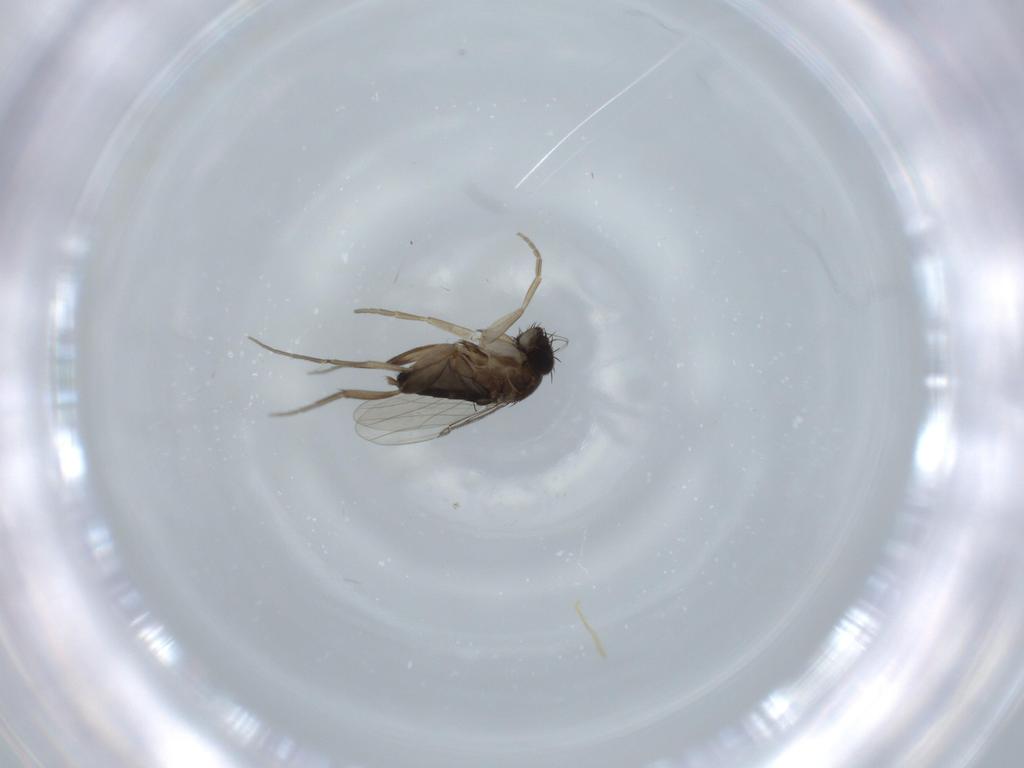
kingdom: Animalia
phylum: Arthropoda
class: Insecta
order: Diptera
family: Phoridae
